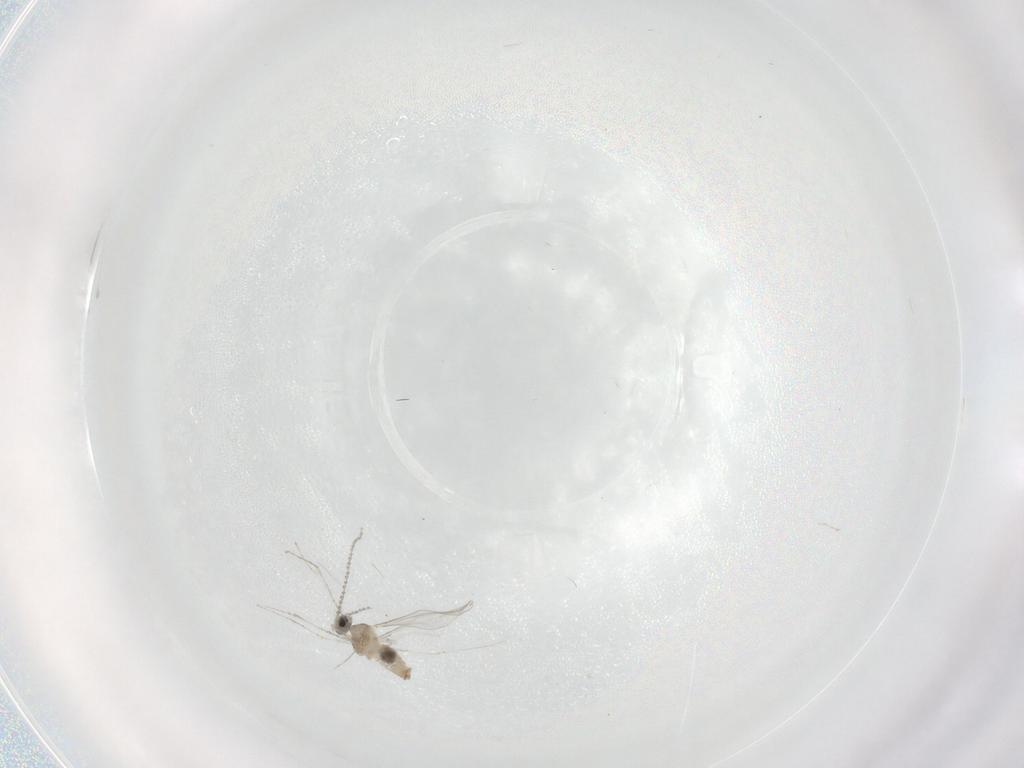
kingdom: Animalia
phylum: Arthropoda
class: Insecta
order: Diptera
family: Cecidomyiidae
